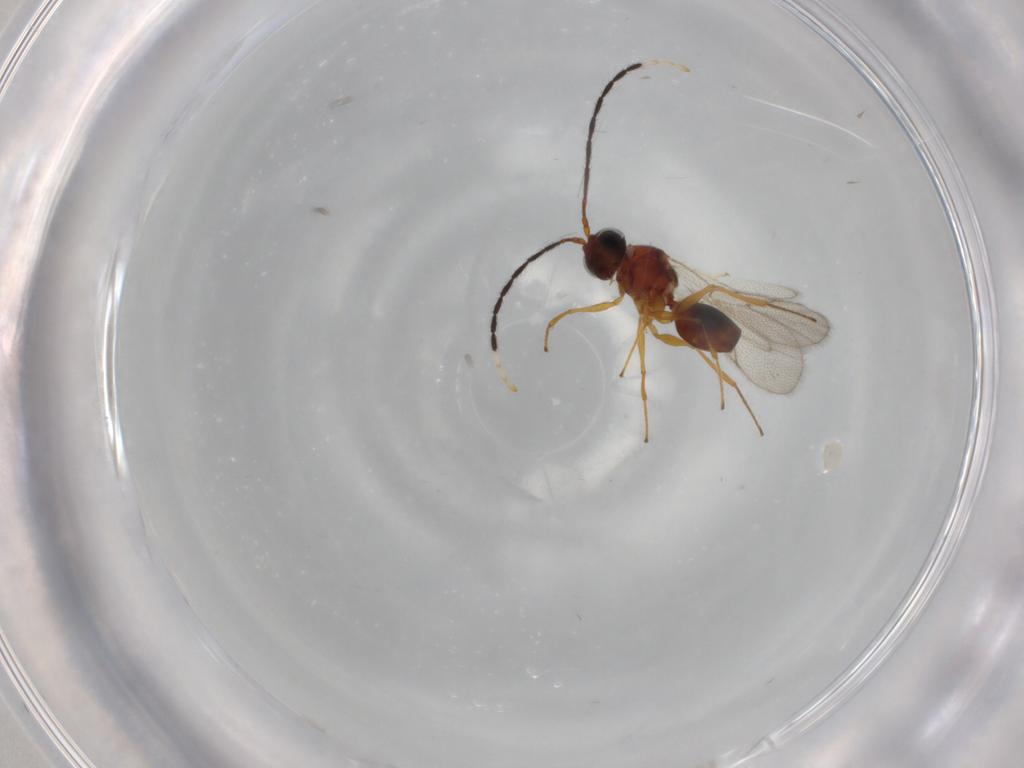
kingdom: Animalia
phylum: Arthropoda
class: Insecta
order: Hymenoptera
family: Figitidae
